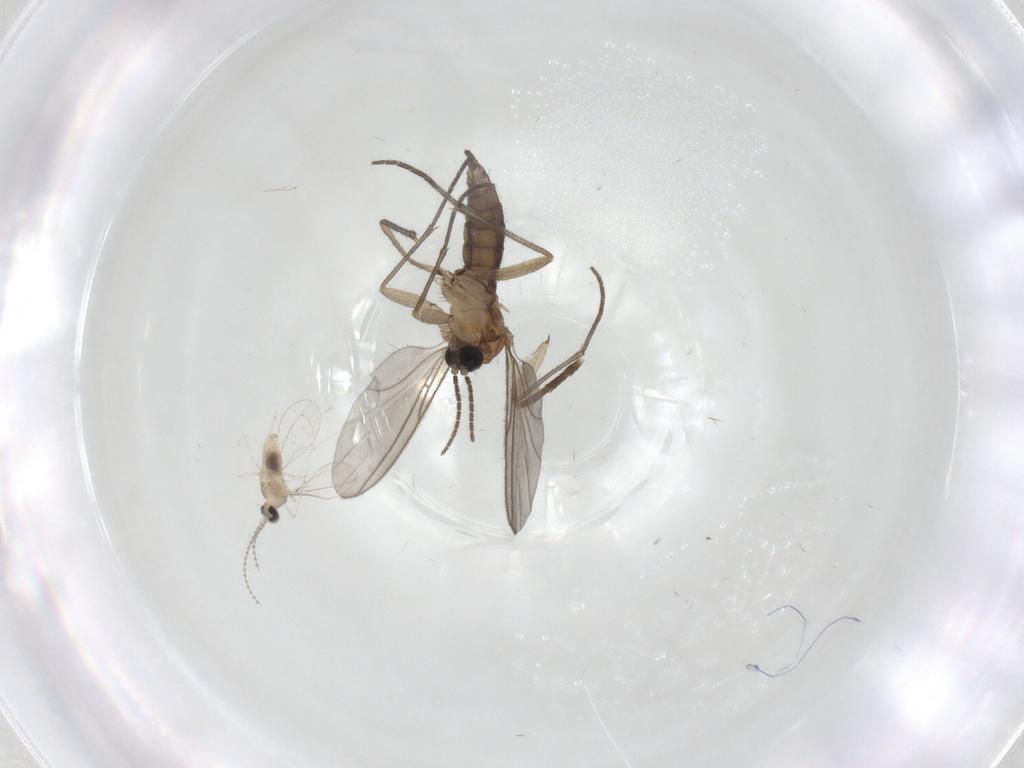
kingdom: Animalia
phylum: Arthropoda
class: Insecta
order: Diptera
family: Sciaridae
